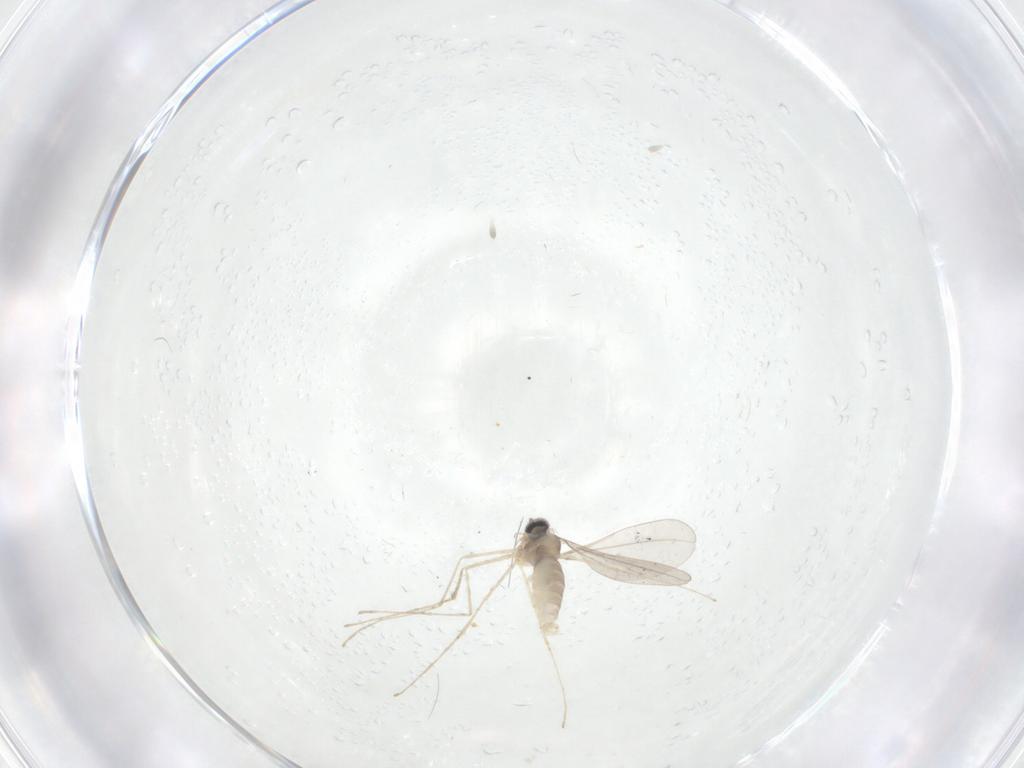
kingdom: Animalia
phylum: Arthropoda
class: Insecta
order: Diptera
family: Cecidomyiidae
